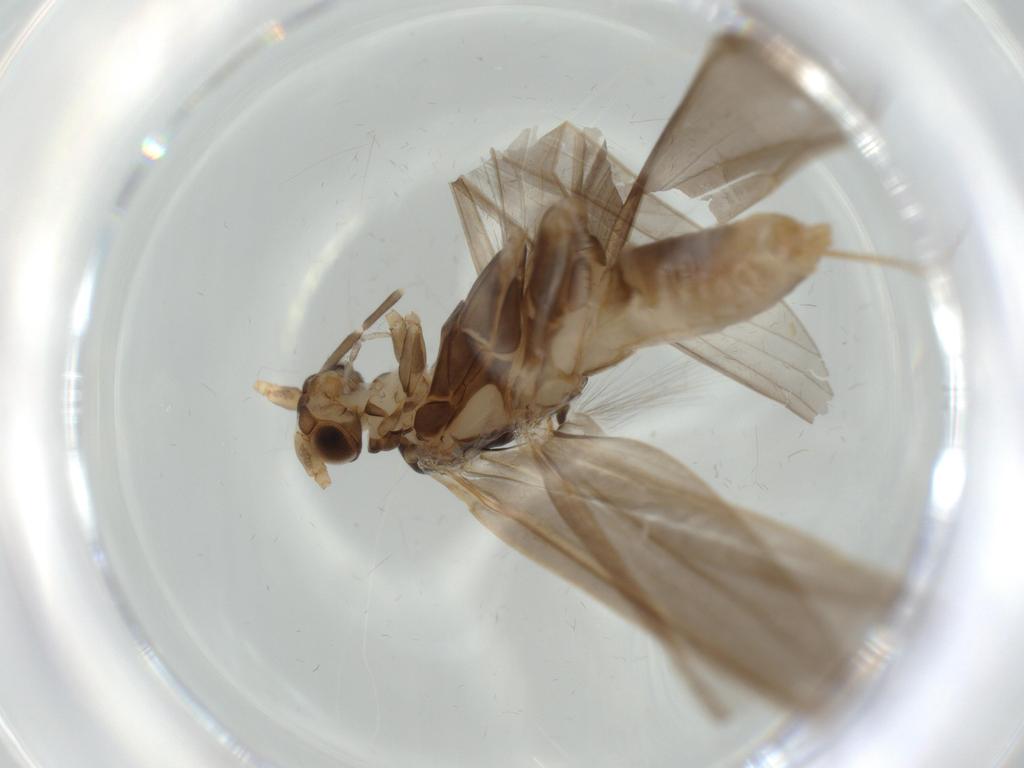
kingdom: Animalia
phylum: Arthropoda
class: Insecta
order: Trichoptera
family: Leptoceridae
